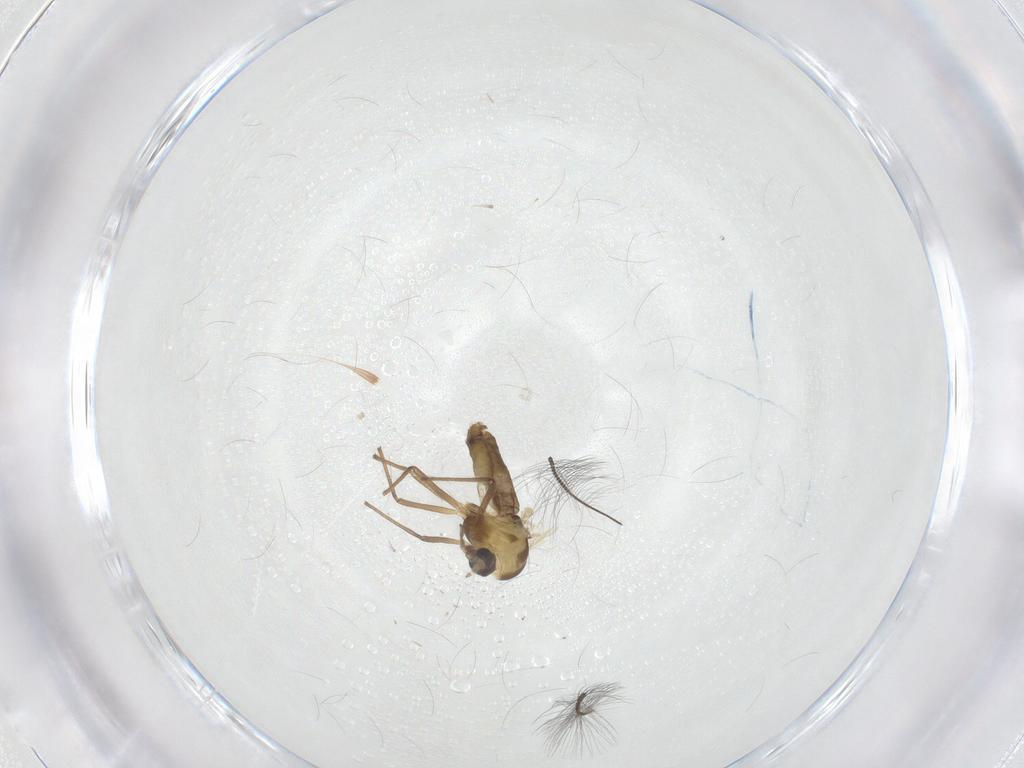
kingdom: Animalia
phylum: Arthropoda
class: Insecta
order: Diptera
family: Chironomidae
